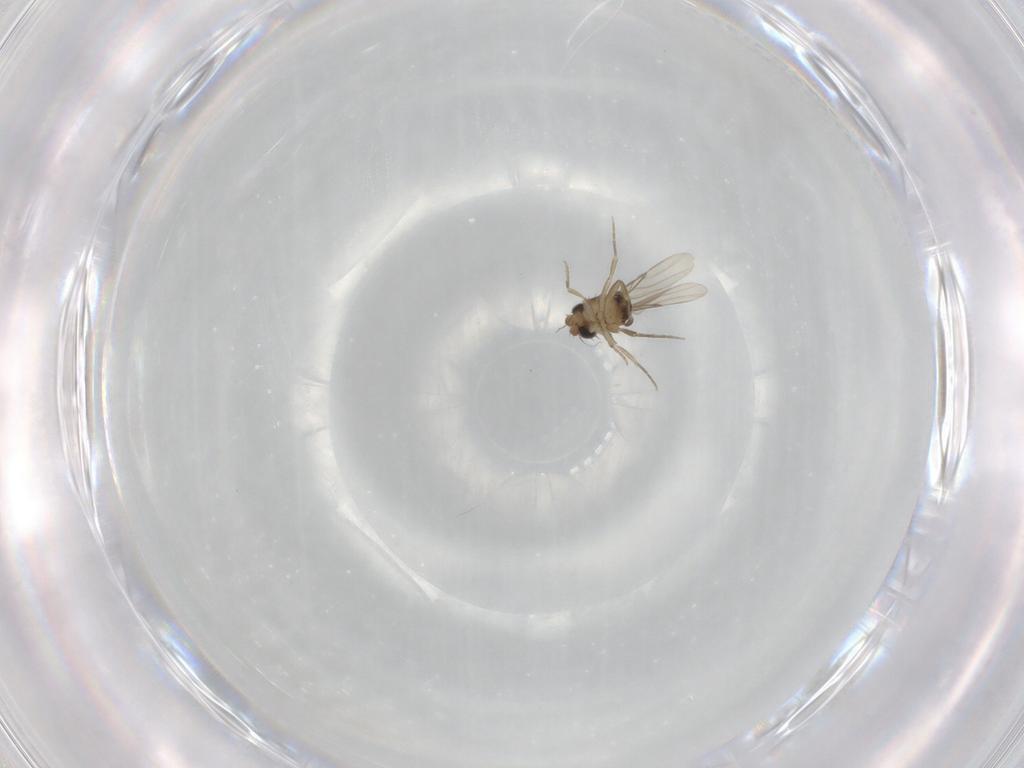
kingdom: Animalia
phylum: Arthropoda
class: Insecta
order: Diptera
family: Phoridae
